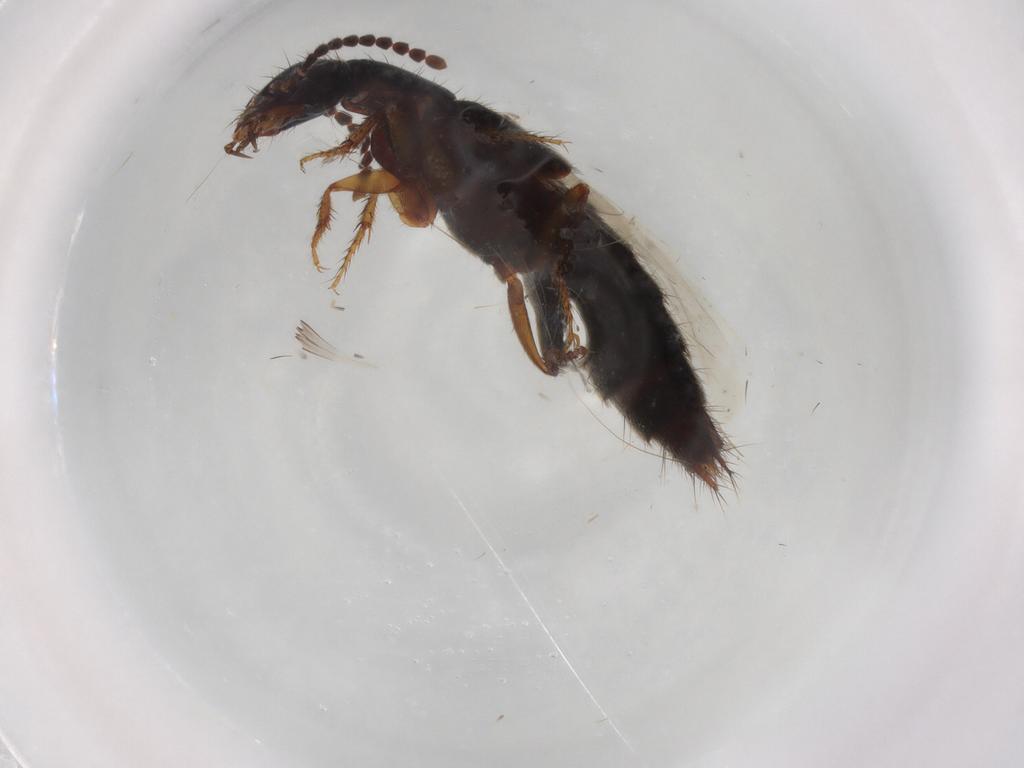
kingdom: Animalia
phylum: Arthropoda
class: Insecta
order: Coleoptera
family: Staphylinidae
